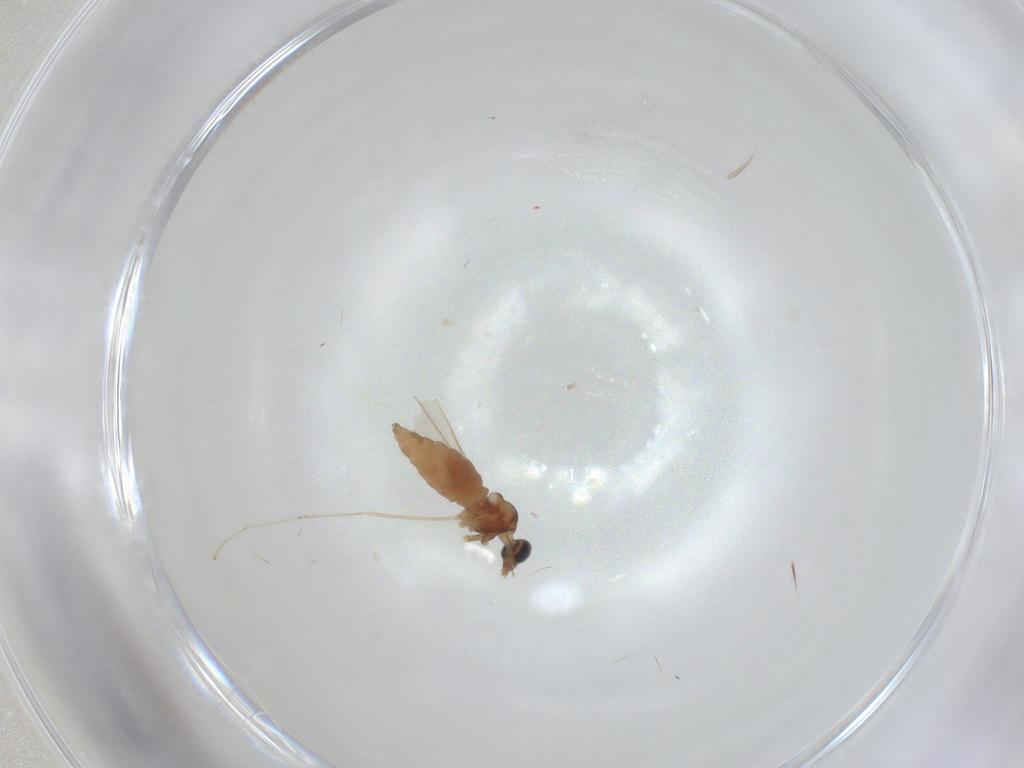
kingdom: Animalia
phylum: Arthropoda
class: Insecta
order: Diptera
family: Cecidomyiidae
